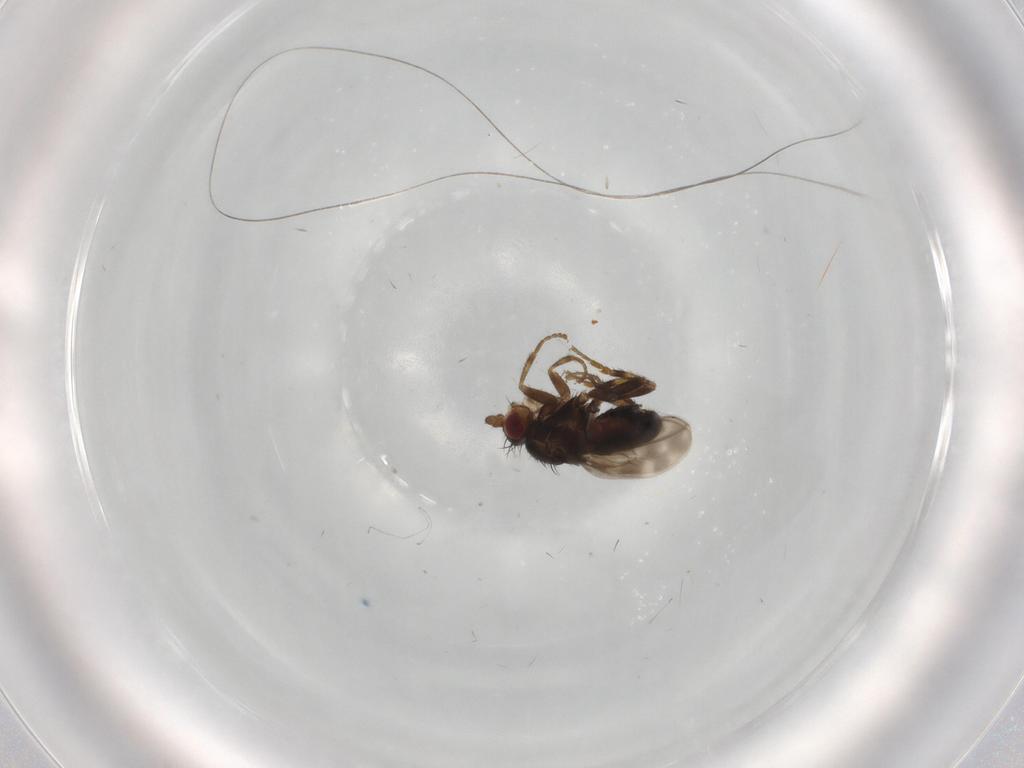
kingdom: Animalia
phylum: Arthropoda
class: Insecta
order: Diptera
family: Sphaeroceridae
